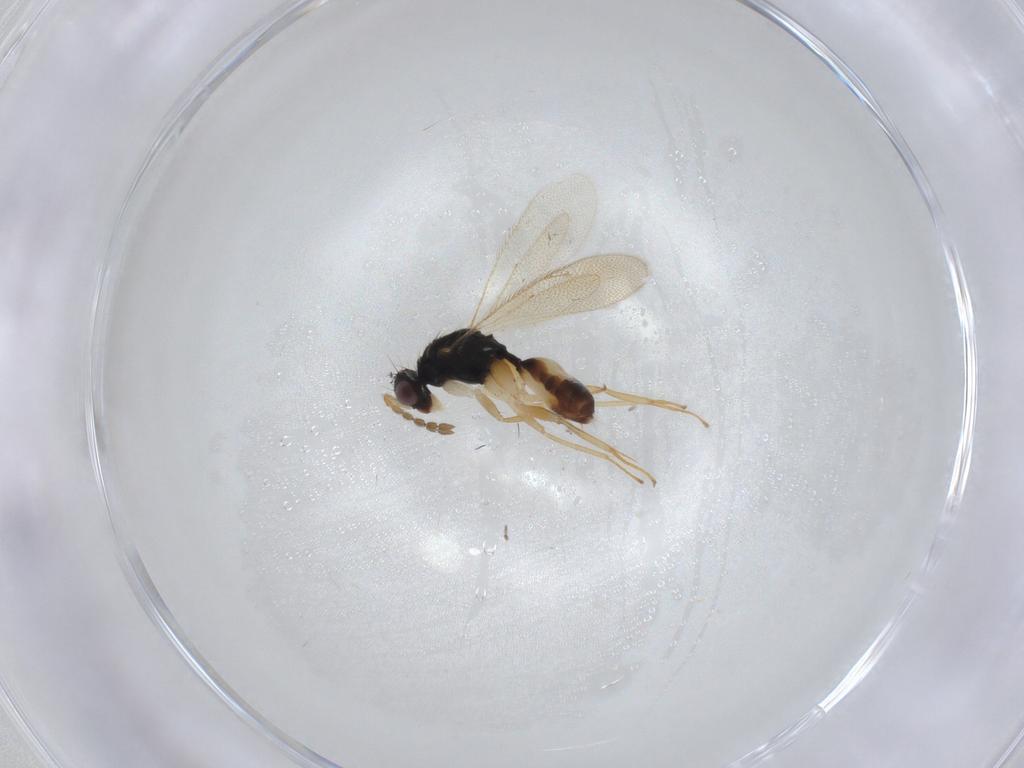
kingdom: Animalia
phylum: Arthropoda
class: Insecta
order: Hymenoptera
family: Eulophidae
